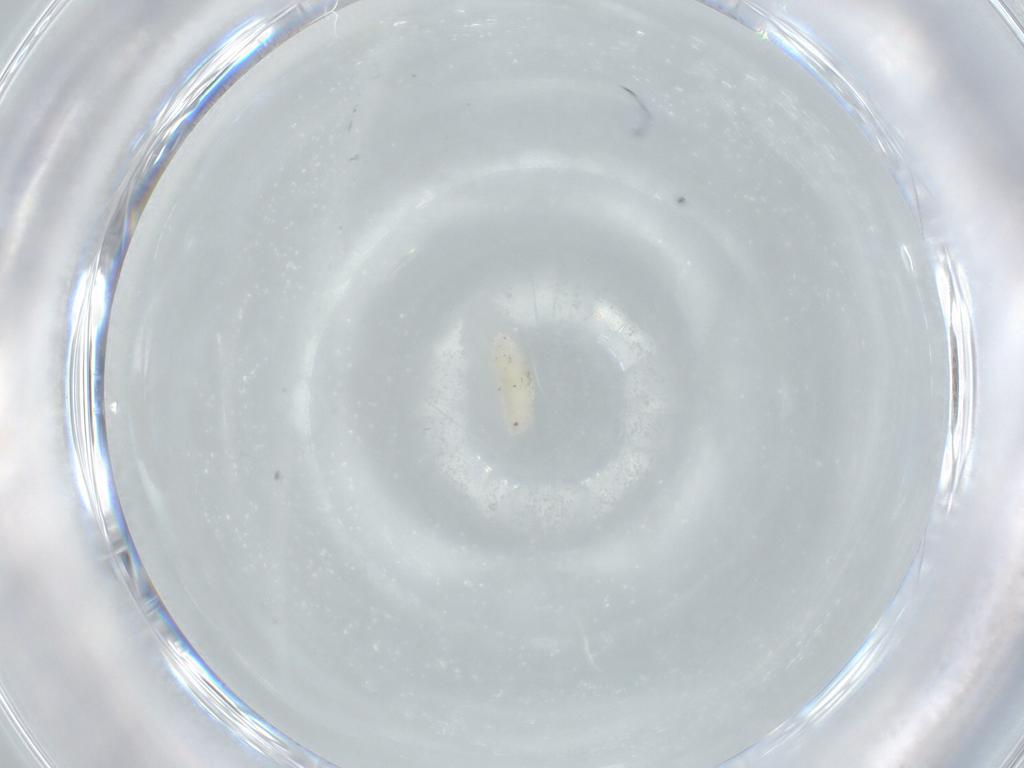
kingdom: Animalia
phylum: Arthropoda
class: Insecta
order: Diptera
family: Cecidomyiidae
